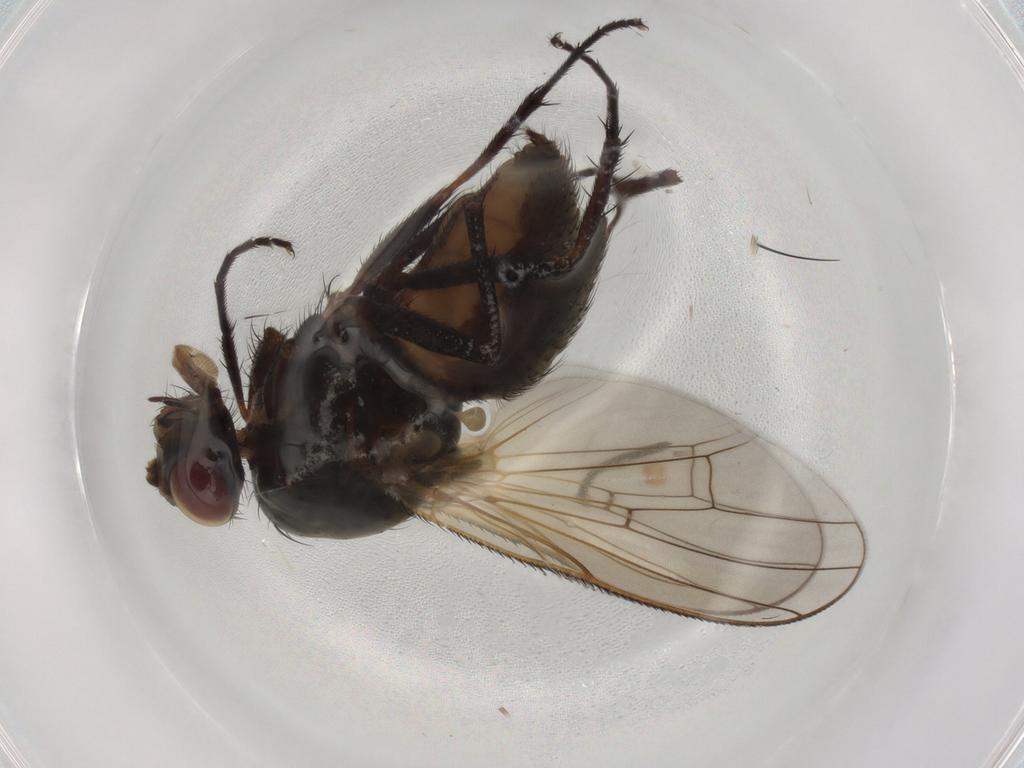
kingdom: Animalia
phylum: Arthropoda
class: Insecta
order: Diptera
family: Anthomyiidae
